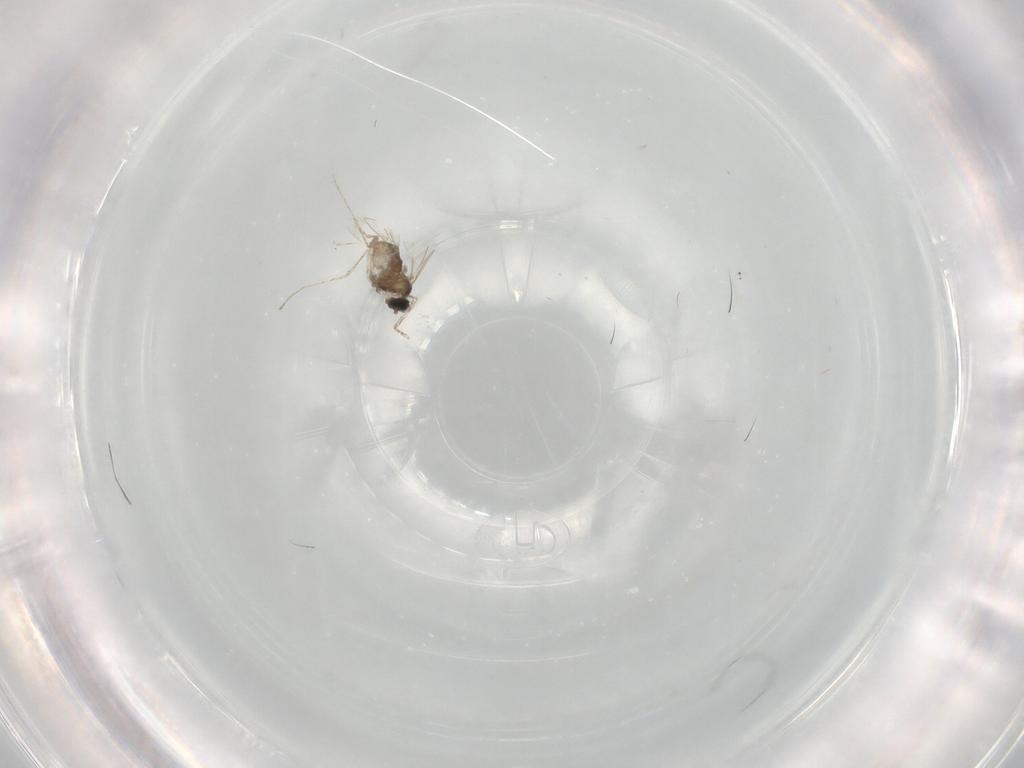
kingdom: Animalia
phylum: Arthropoda
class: Insecta
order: Diptera
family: Cecidomyiidae
